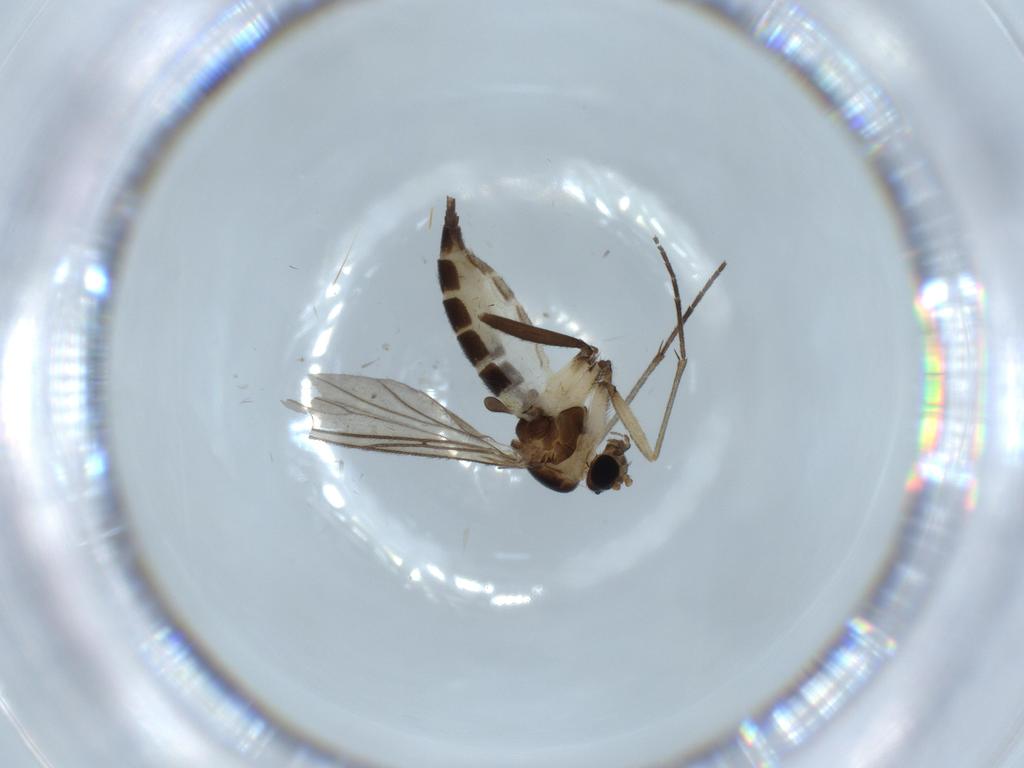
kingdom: Animalia
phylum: Arthropoda
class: Insecta
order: Diptera
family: Sciaridae
